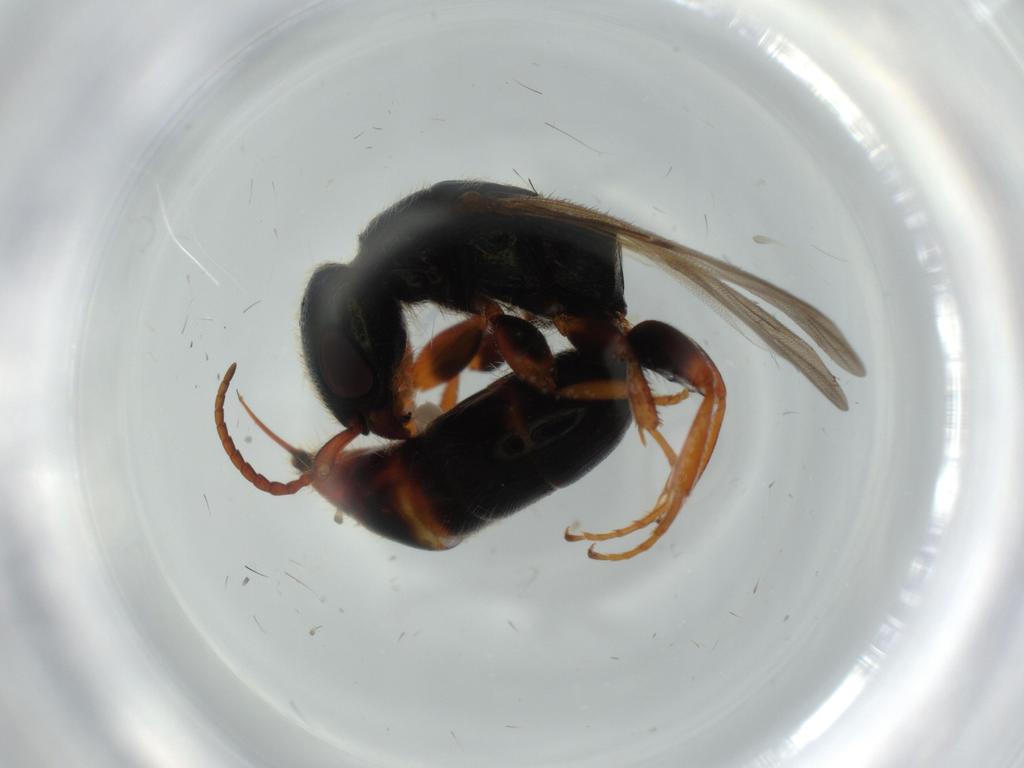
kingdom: Animalia
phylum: Arthropoda
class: Insecta
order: Hymenoptera
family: Bethylidae
